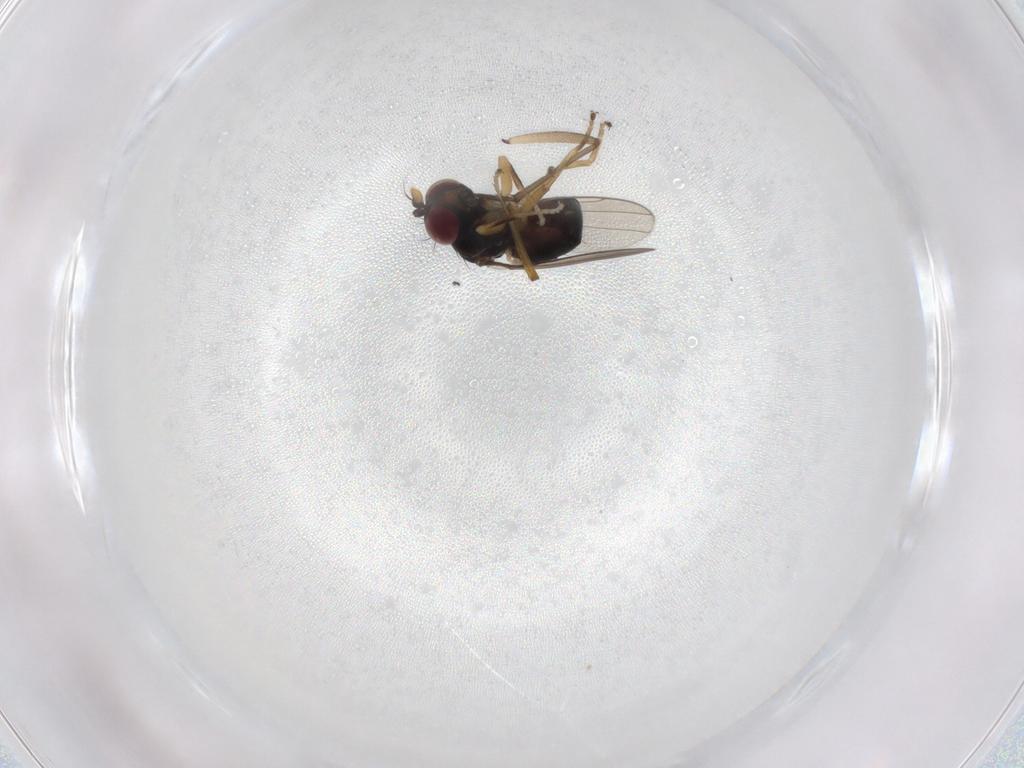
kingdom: Animalia
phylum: Arthropoda
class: Insecta
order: Diptera
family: Ephydridae
